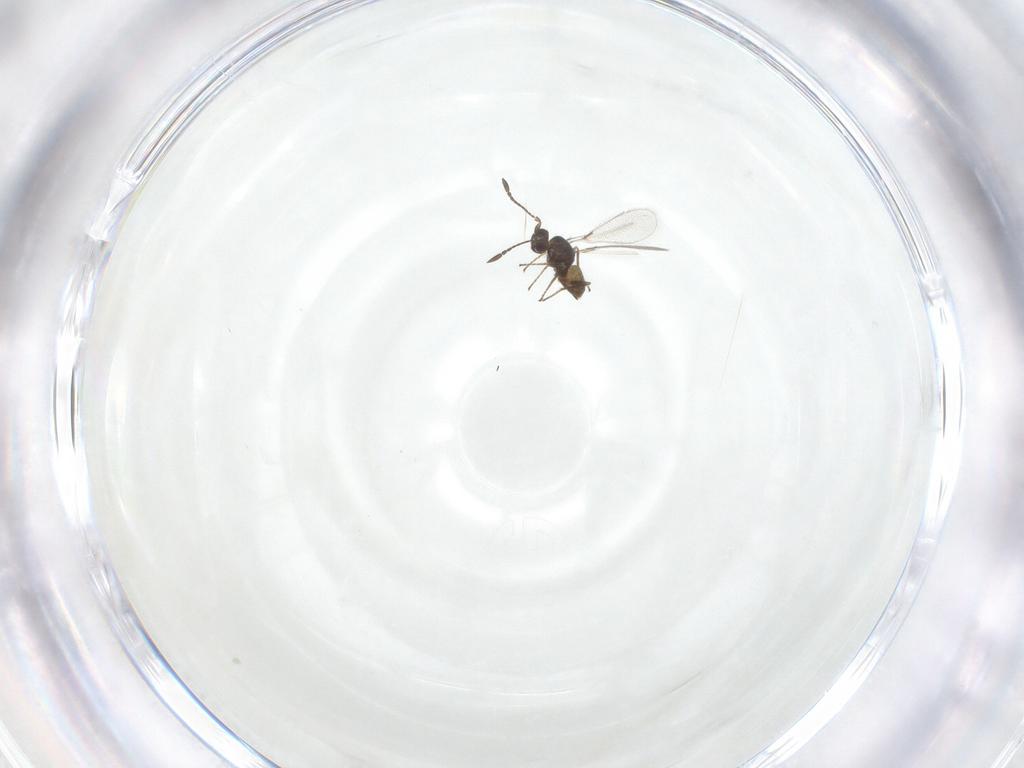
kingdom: Animalia
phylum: Arthropoda
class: Insecta
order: Hymenoptera
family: Mymaridae
